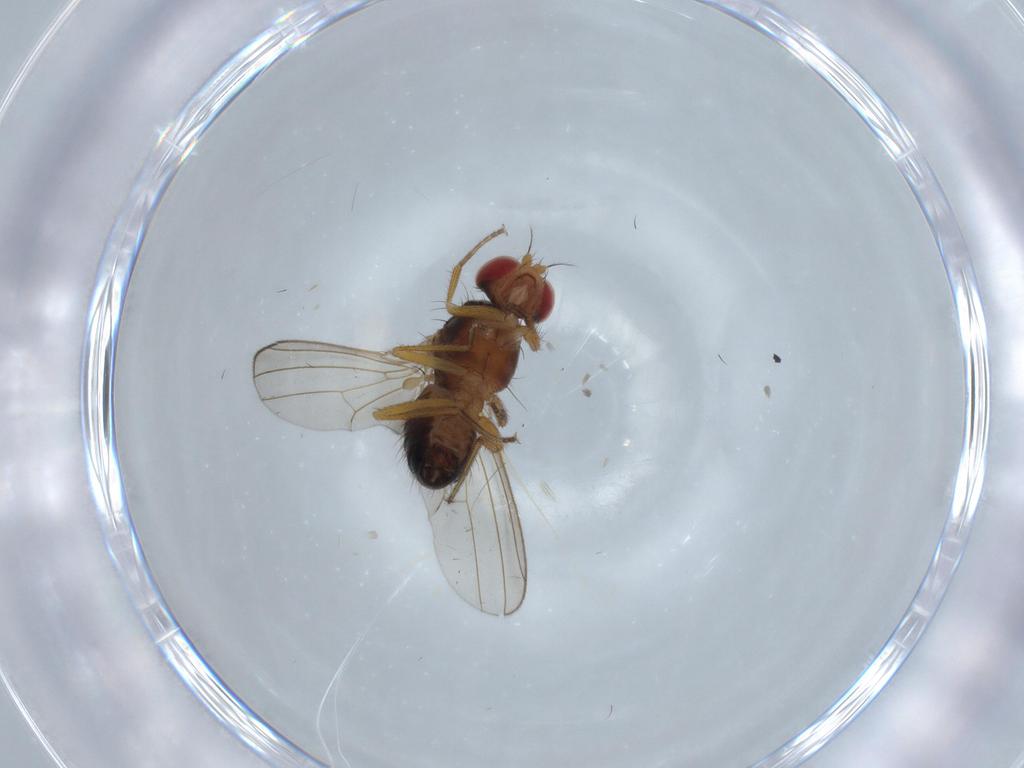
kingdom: Animalia
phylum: Arthropoda
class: Insecta
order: Diptera
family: Drosophilidae
